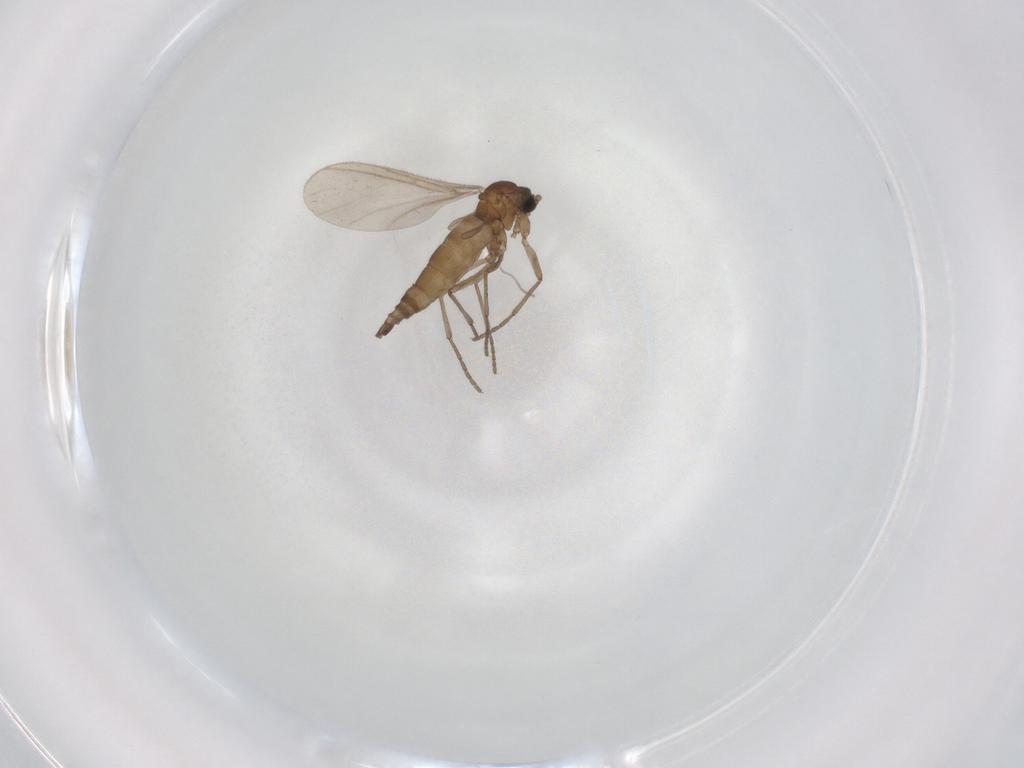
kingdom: Animalia
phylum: Arthropoda
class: Insecta
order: Diptera
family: Sciaridae
